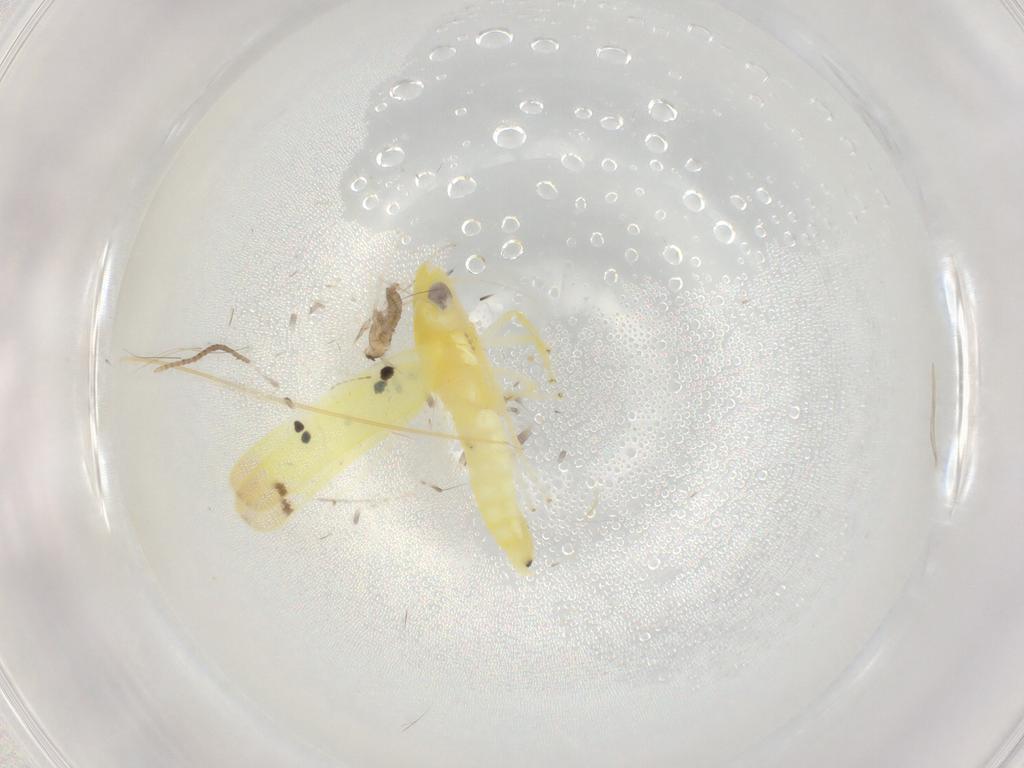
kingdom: Animalia
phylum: Arthropoda
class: Insecta
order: Hemiptera
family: Cicadellidae
